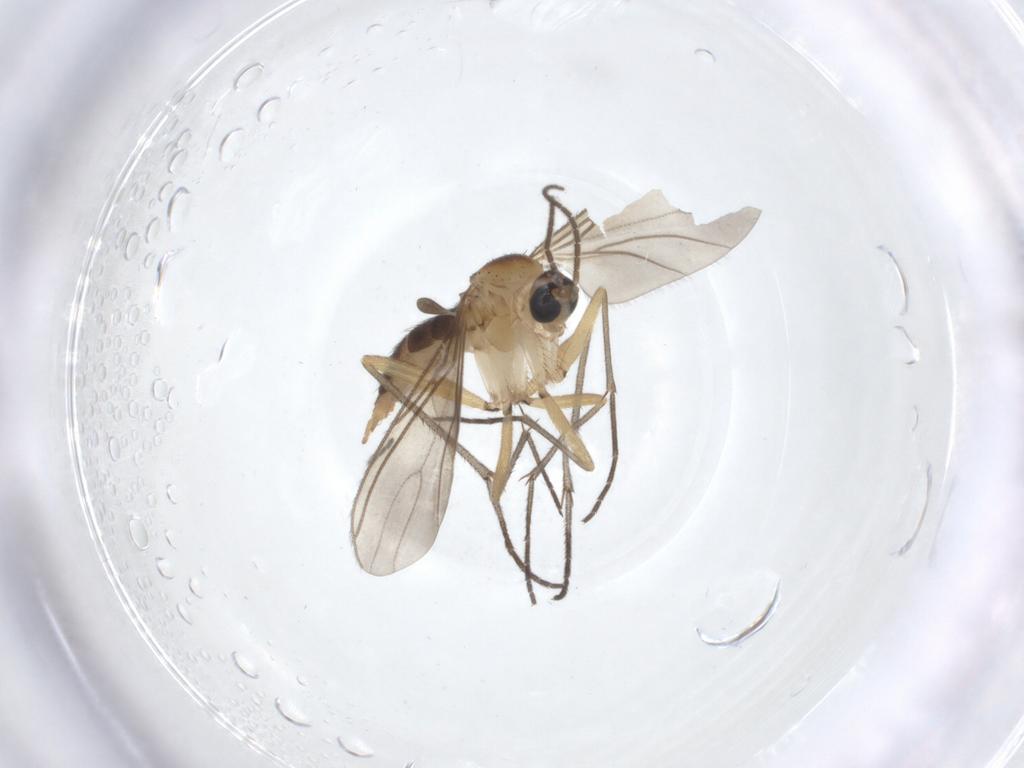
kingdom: Animalia
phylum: Arthropoda
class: Insecta
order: Diptera
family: Sciaridae
